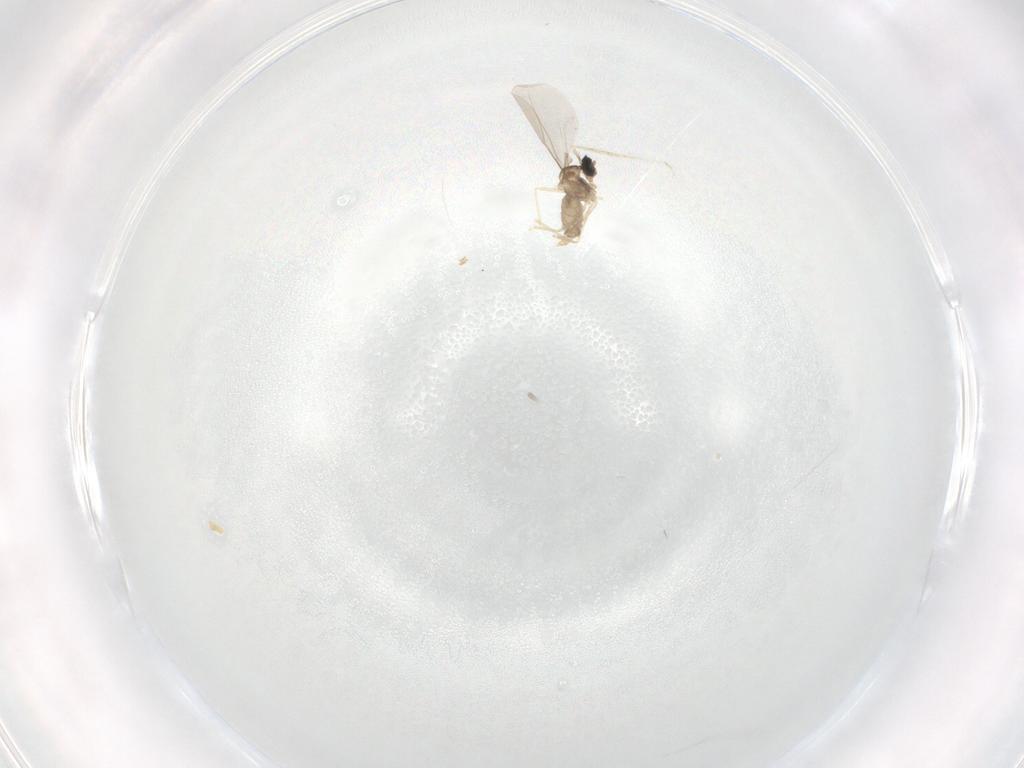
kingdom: Animalia
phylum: Arthropoda
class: Insecta
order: Diptera
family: Cecidomyiidae
